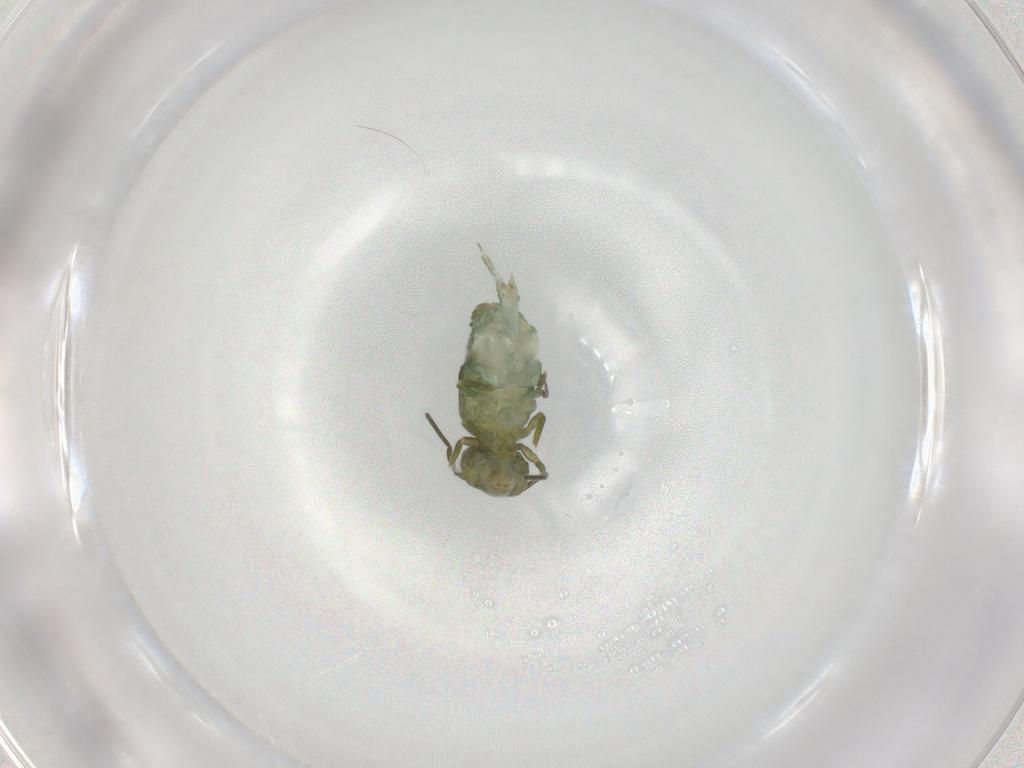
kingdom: Animalia
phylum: Arthropoda
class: Collembola
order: Symphypleona
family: Sminthuridae
